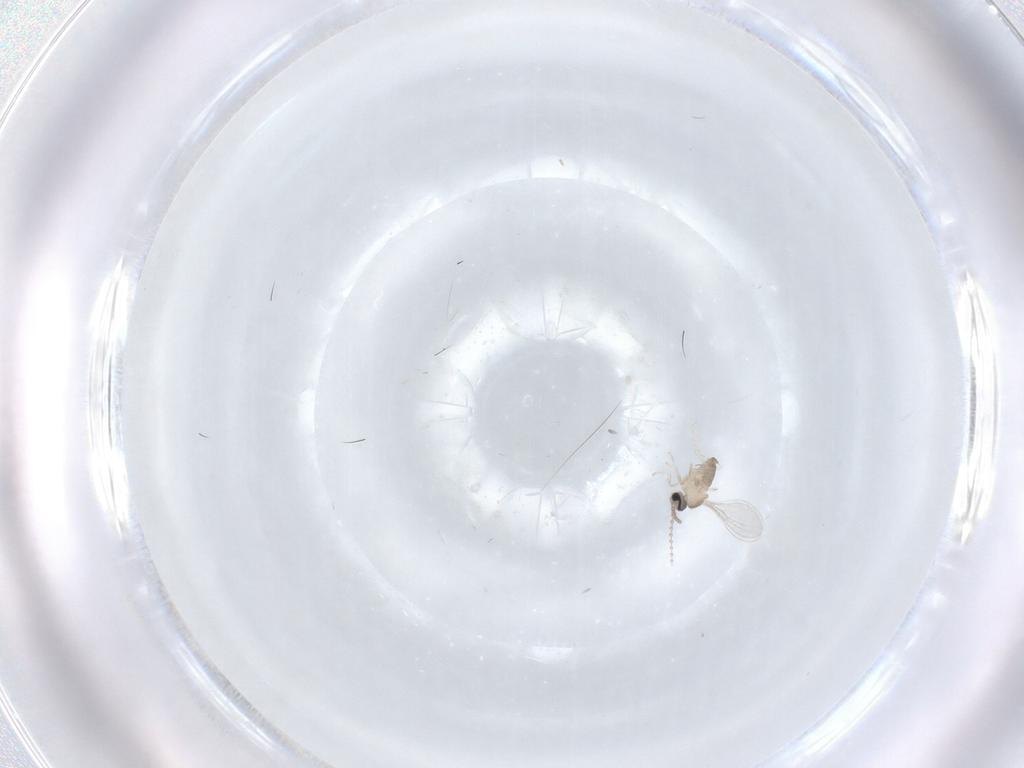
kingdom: Animalia
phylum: Arthropoda
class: Insecta
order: Diptera
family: Cecidomyiidae
